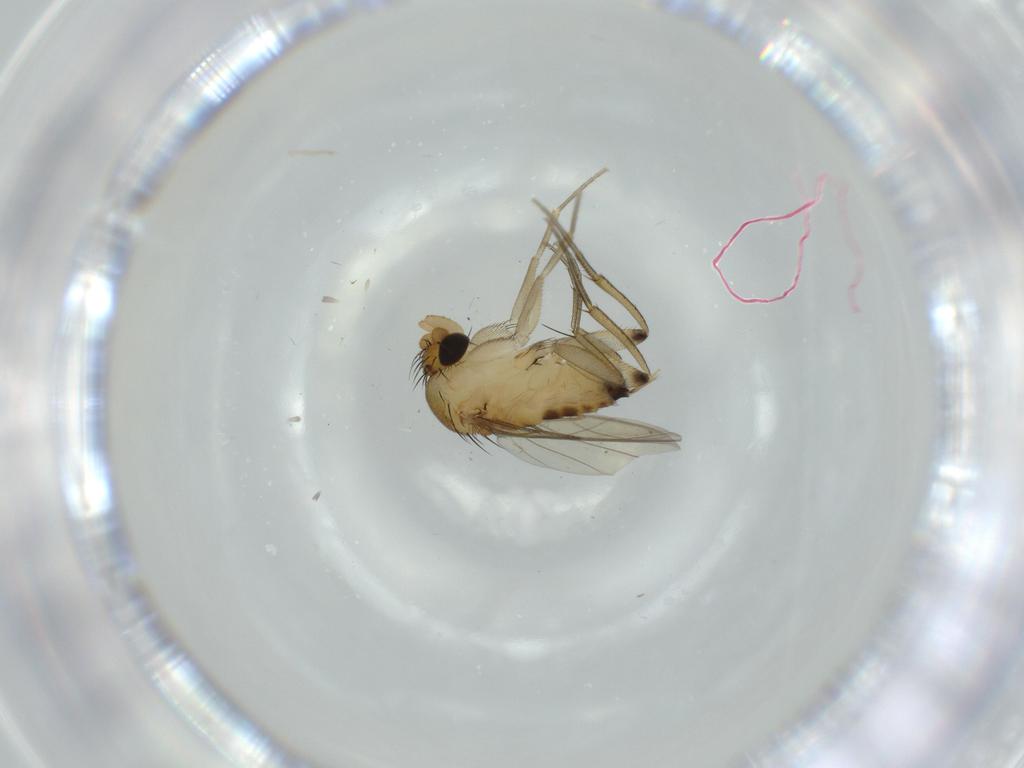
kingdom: Animalia
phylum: Arthropoda
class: Insecta
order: Diptera
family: Phoridae
